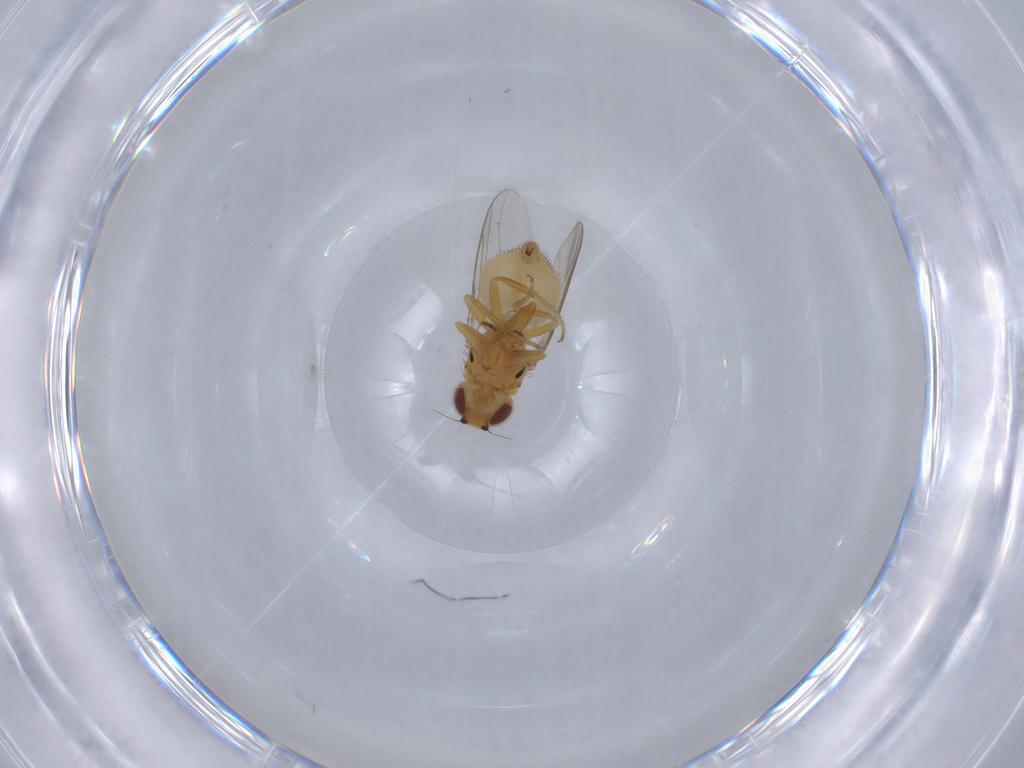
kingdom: Animalia
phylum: Arthropoda
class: Insecta
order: Diptera
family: Chloropidae
